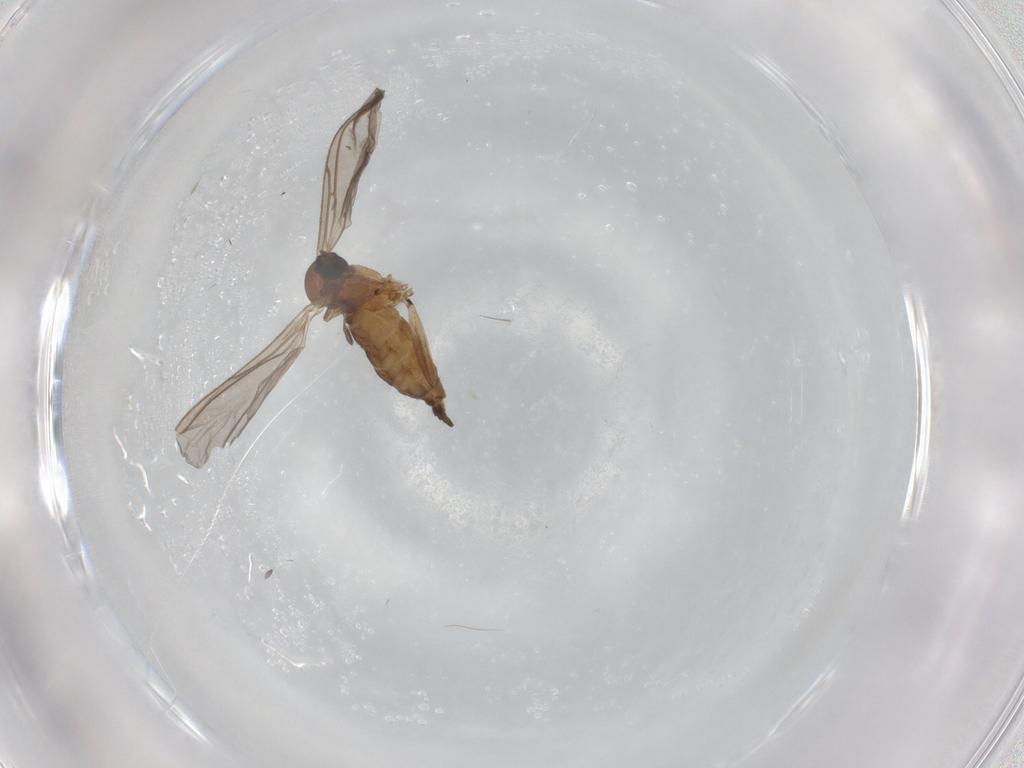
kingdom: Animalia
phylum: Arthropoda
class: Insecta
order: Diptera
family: Sciaridae
